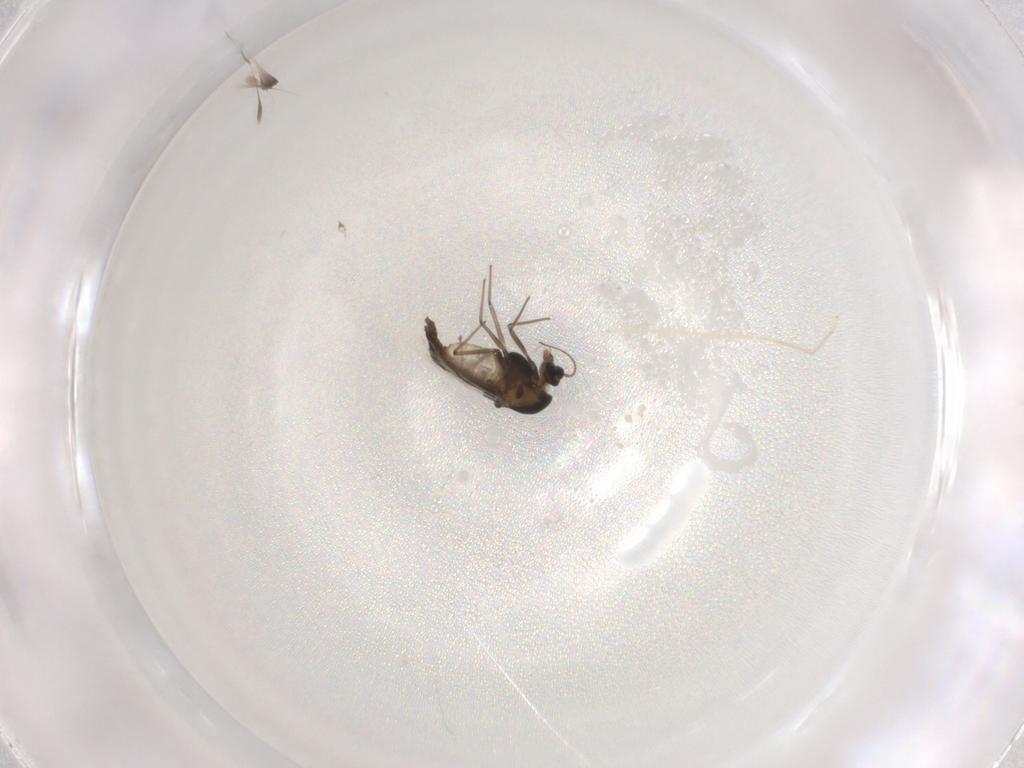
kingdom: Animalia
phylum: Arthropoda
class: Insecta
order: Diptera
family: Chironomidae
